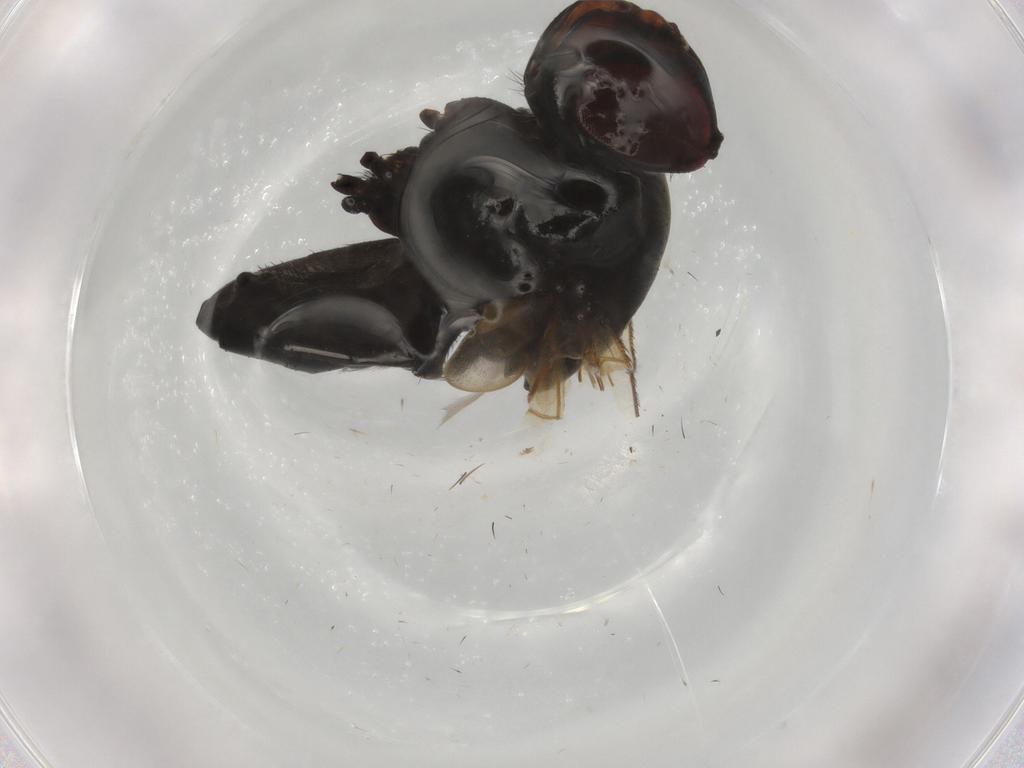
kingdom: Animalia
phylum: Arthropoda
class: Insecta
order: Diptera
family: Tachinidae
